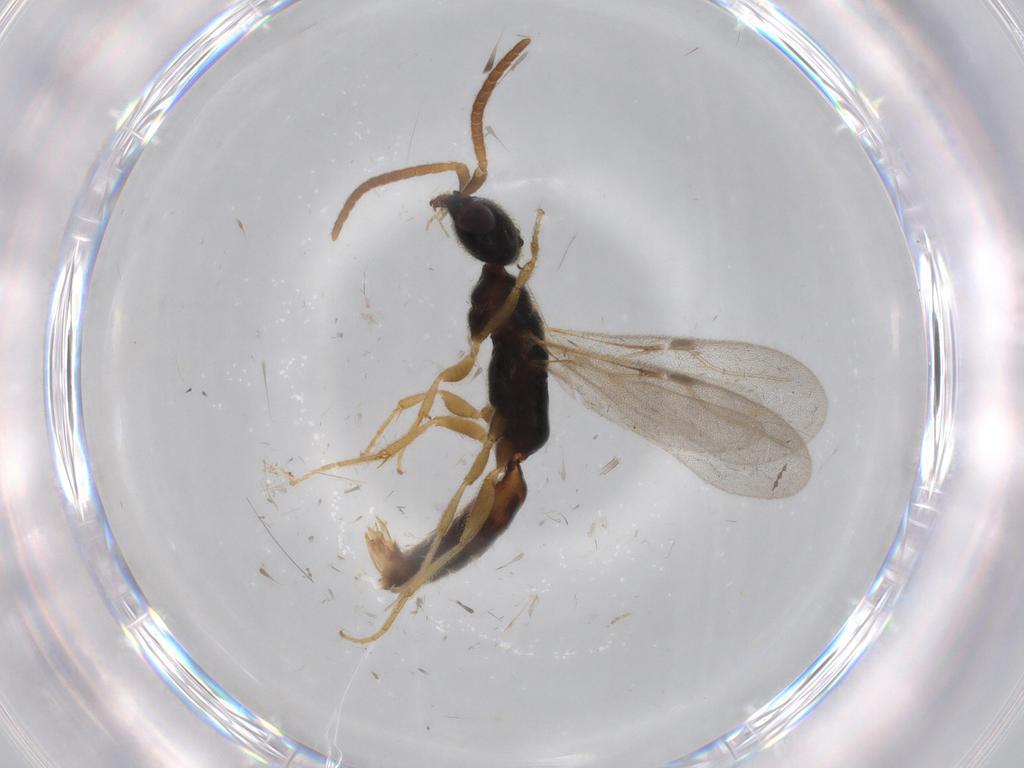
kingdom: Animalia
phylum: Arthropoda
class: Insecta
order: Hymenoptera
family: Bethylidae
